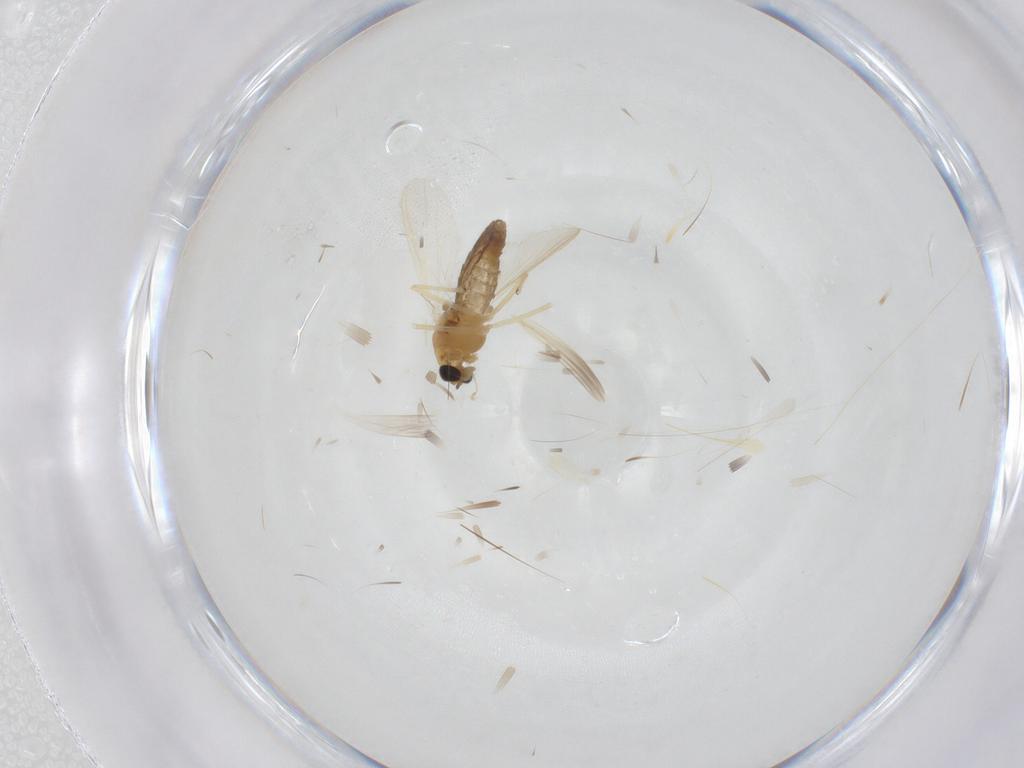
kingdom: Animalia
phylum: Arthropoda
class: Insecta
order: Diptera
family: Chironomidae
